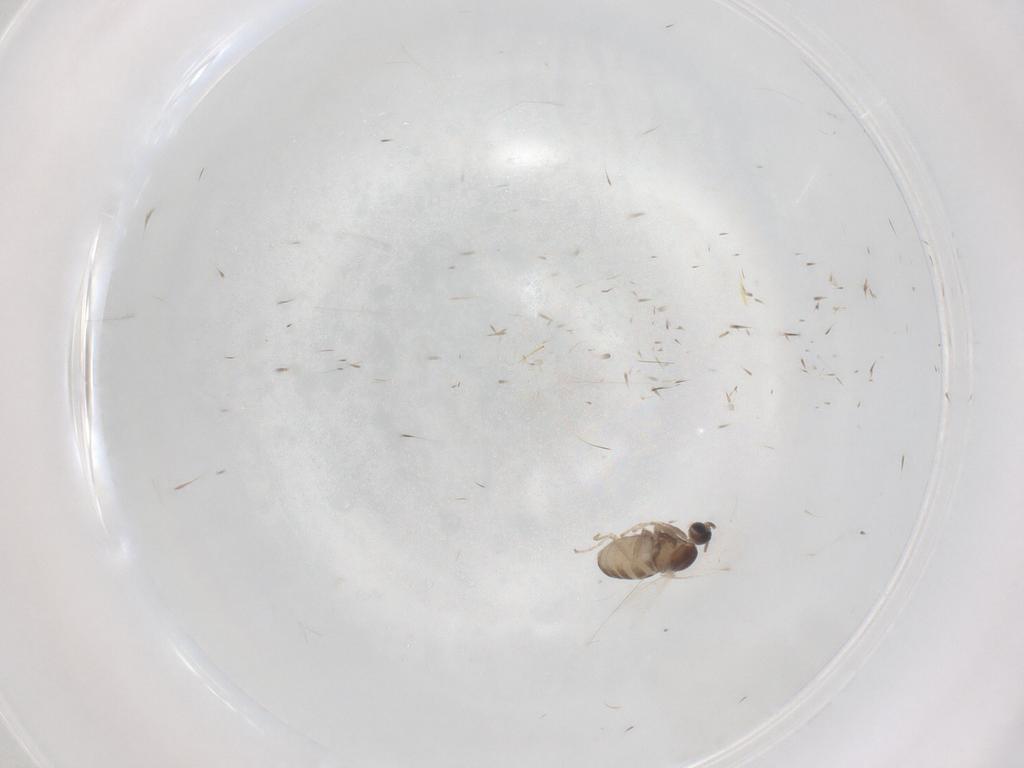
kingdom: Animalia
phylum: Arthropoda
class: Insecta
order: Diptera
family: Cecidomyiidae
